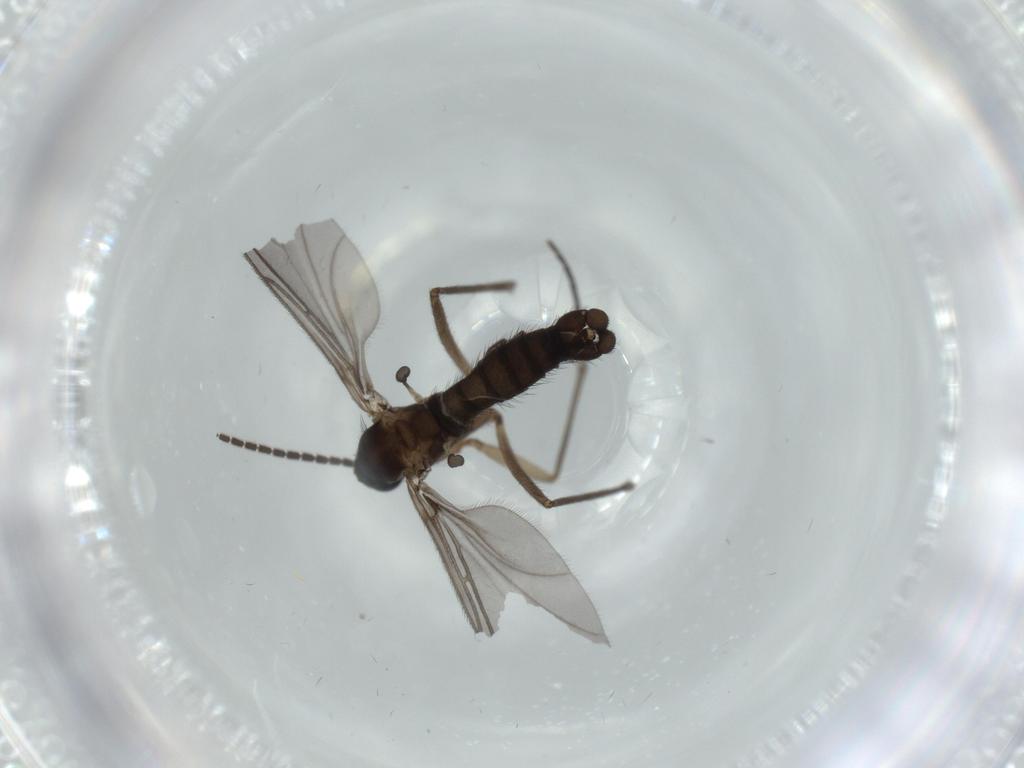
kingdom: Animalia
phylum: Arthropoda
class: Insecta
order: Diptera
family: Sciaridae
